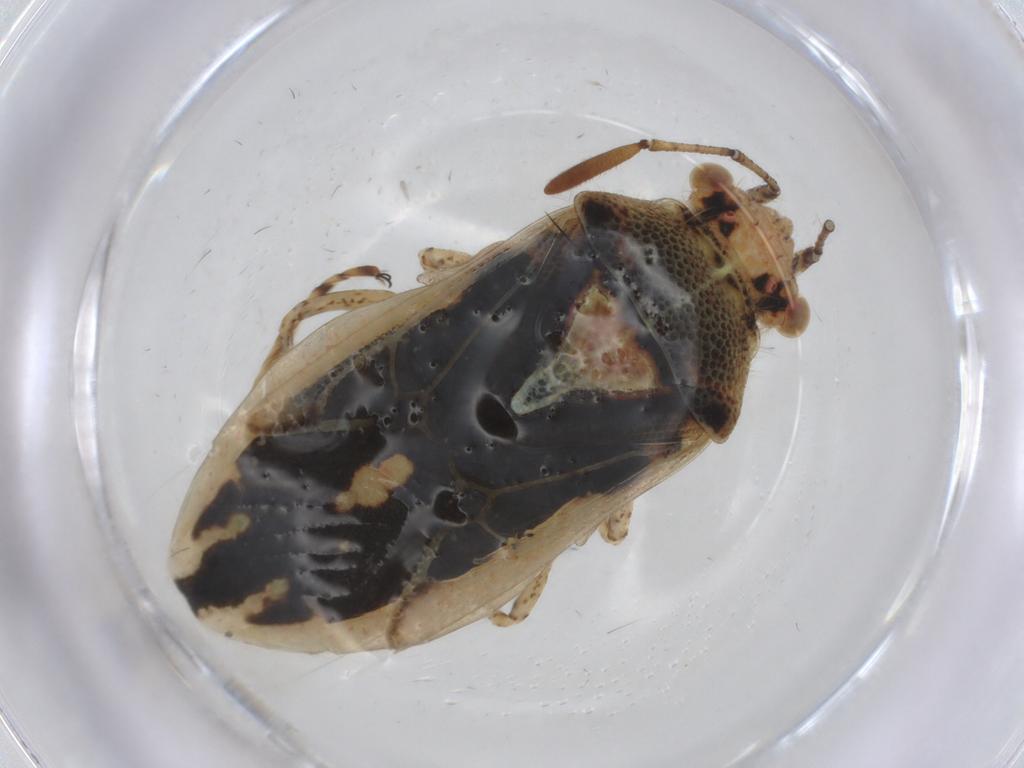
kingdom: Animalia
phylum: Arthropoda
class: Insecta
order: Hemiptera
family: Rhopalidae
